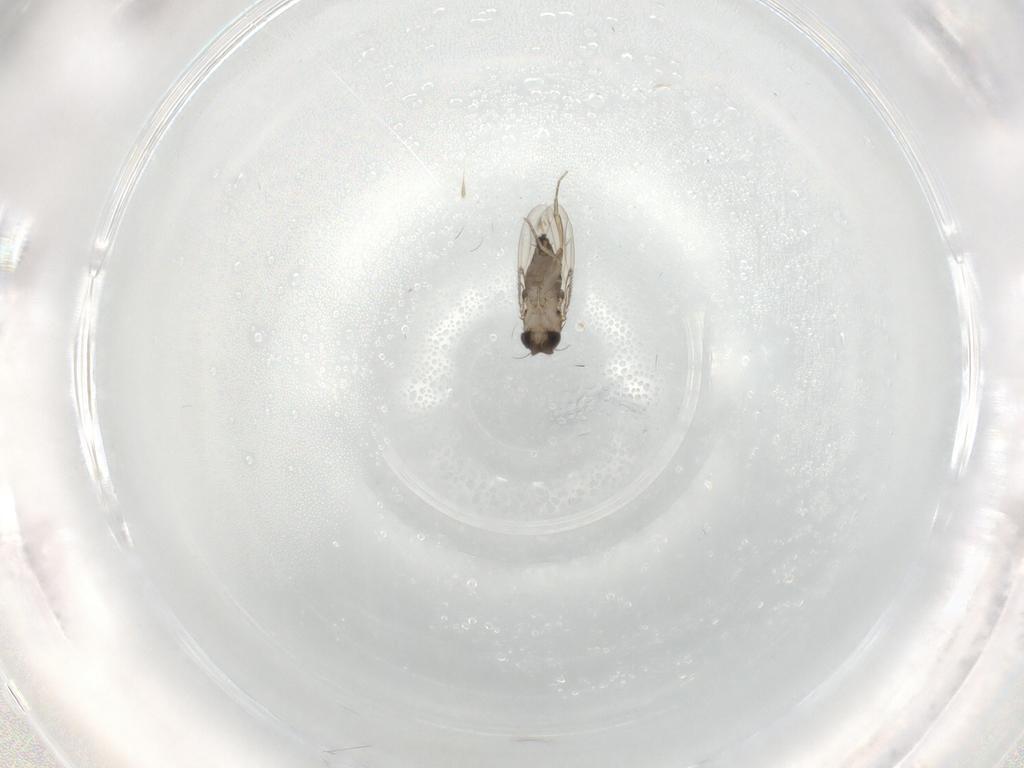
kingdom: Animalia
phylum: Arthropoda
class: Insecta
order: Diptera
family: Phoridae
